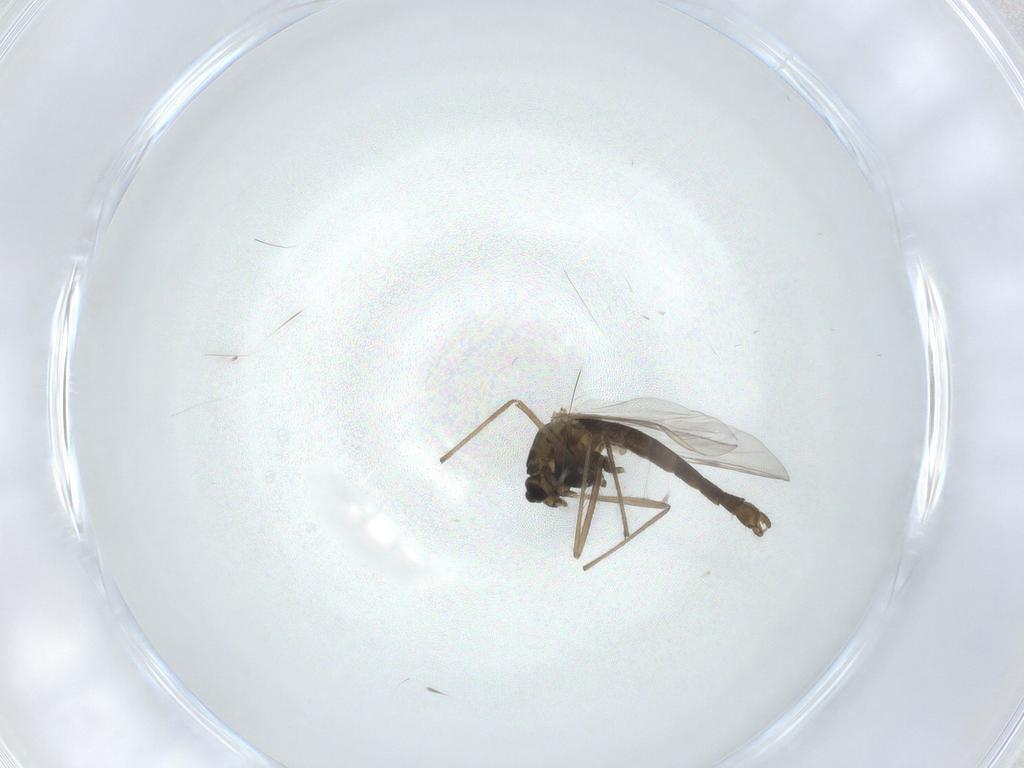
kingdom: Animalia
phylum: Arthropoda
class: Insecta
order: Diptera
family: Chironomidae
